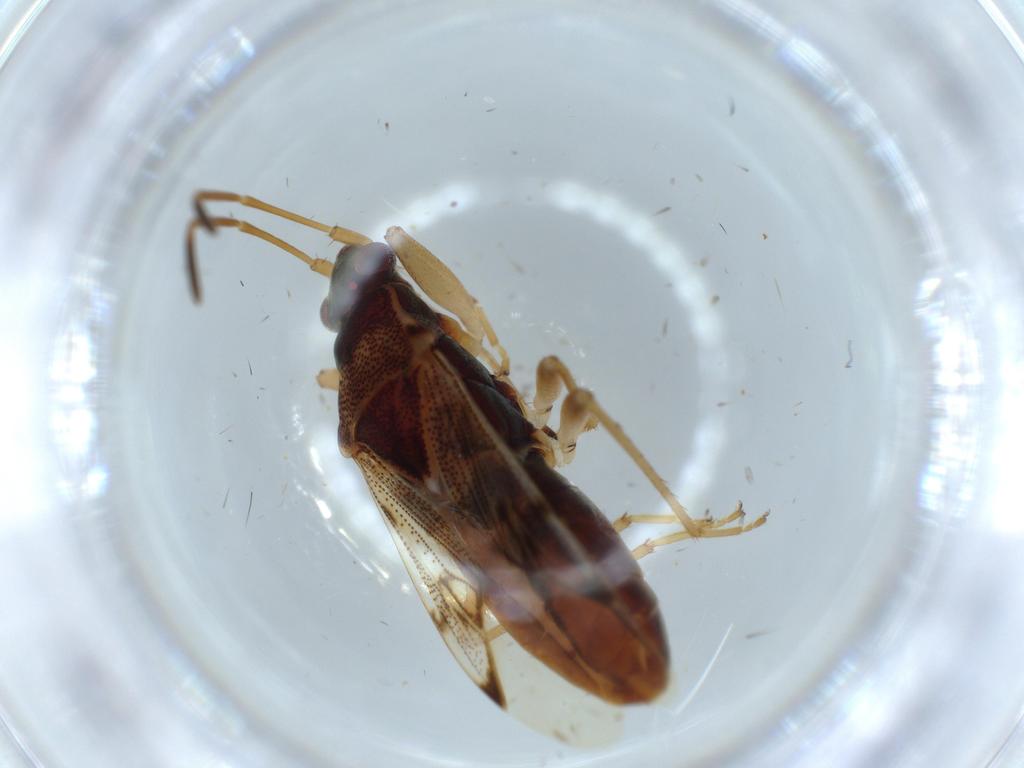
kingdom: Animalia
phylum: Arthropoda
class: Insecta
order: Hemiptera
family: Rhyparochromidae
